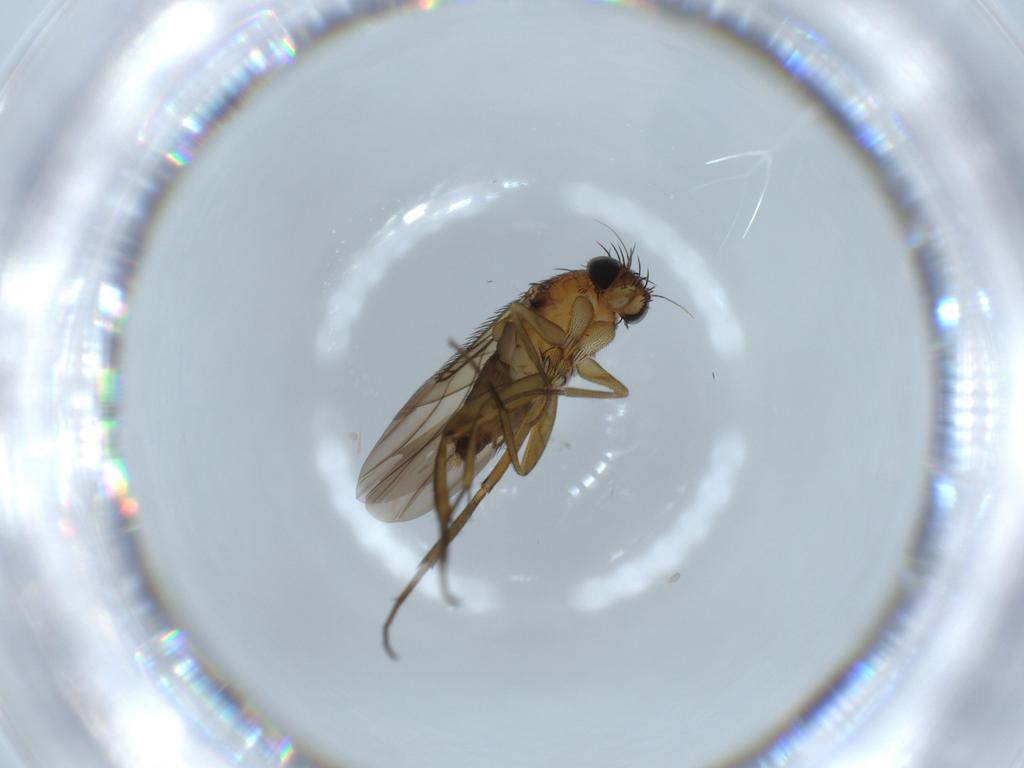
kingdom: Animalia
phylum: Arthropoda
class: Insecta
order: Diptera
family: Phoridae
